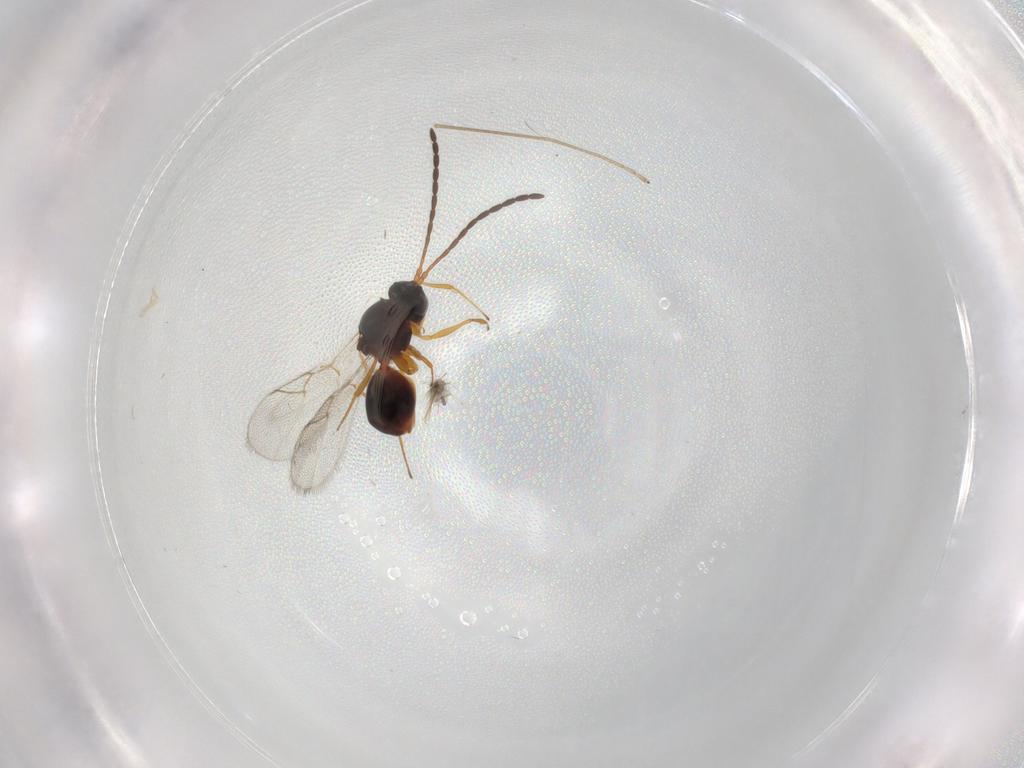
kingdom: Animalia
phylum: Arthropoda
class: Insecta
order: Hymenoptera
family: Figitidae
